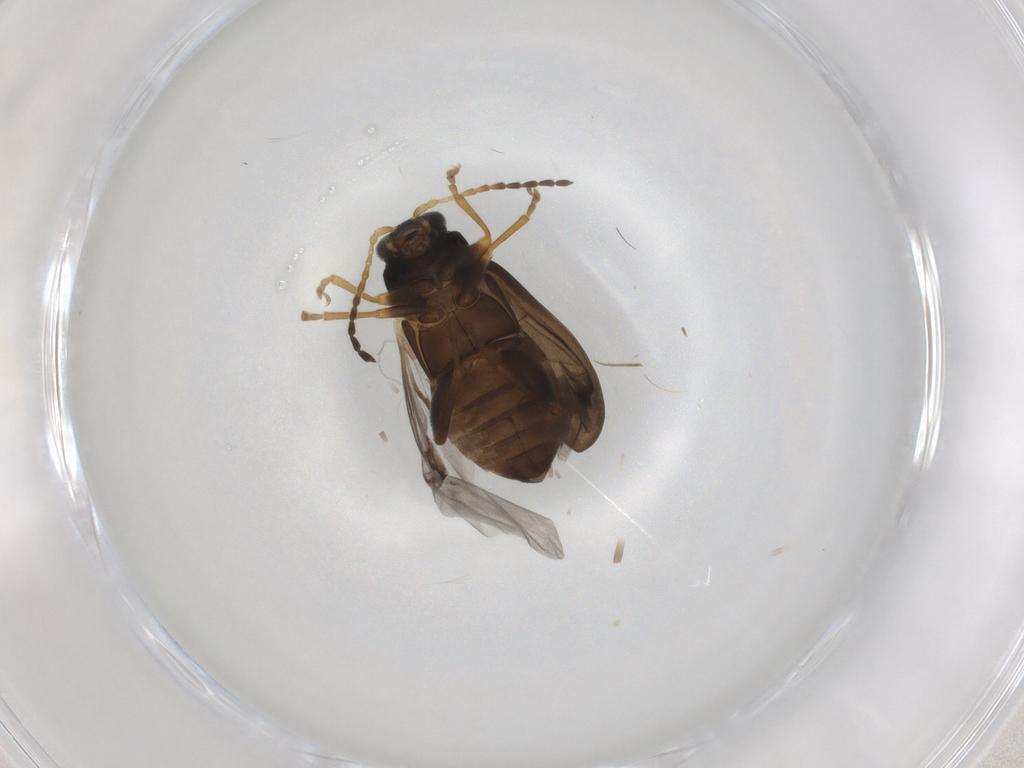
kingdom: Animalia
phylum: Arthropoda
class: Insecta
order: Coleoptera
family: Chrysomelidae
